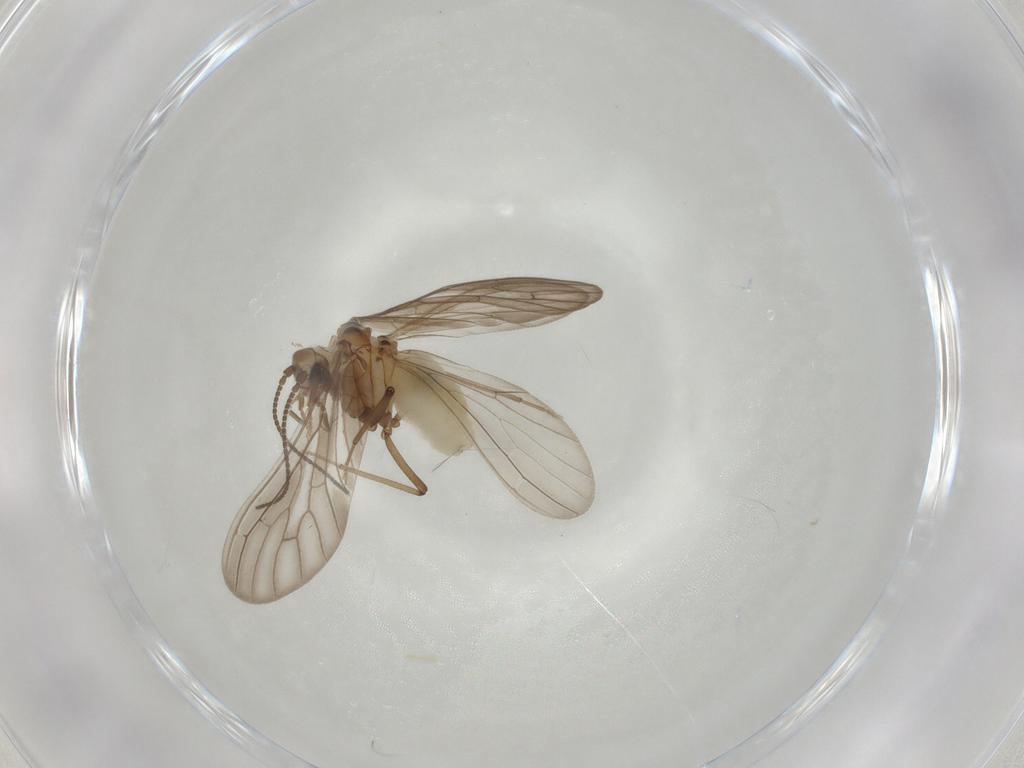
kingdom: Animalia
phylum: Arthropoda
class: Insecta
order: Neuroptera
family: Coniopterygidae
